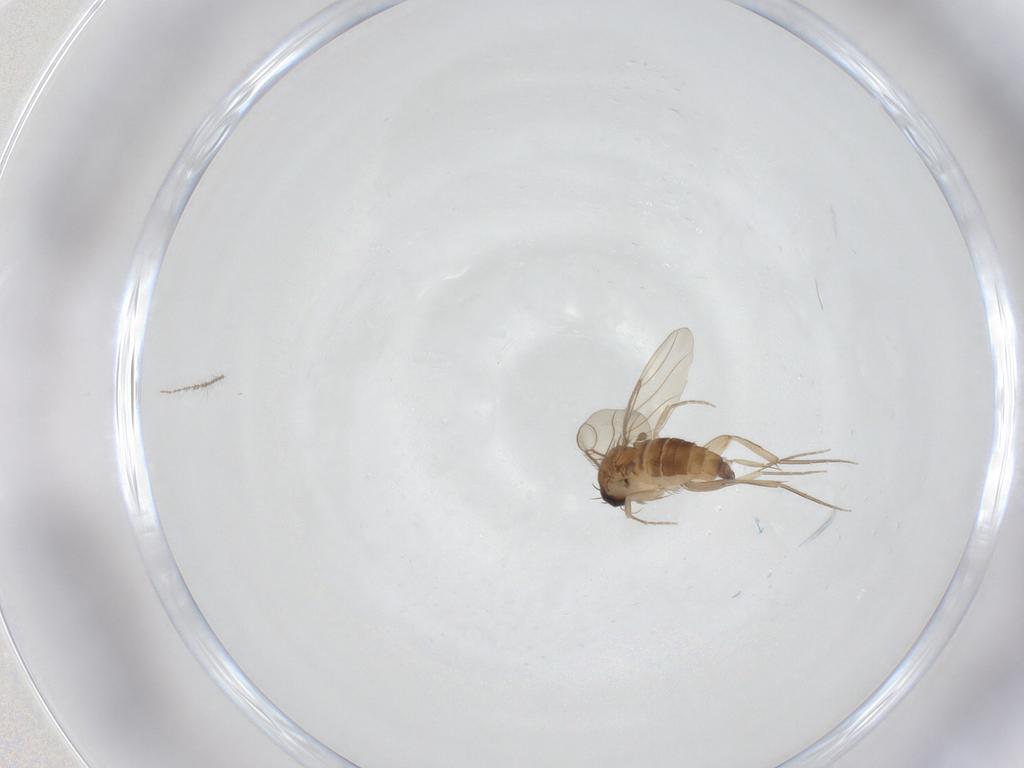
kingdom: Animalia
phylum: Arthropoda
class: Insecta
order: Diptera
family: Phoridae
